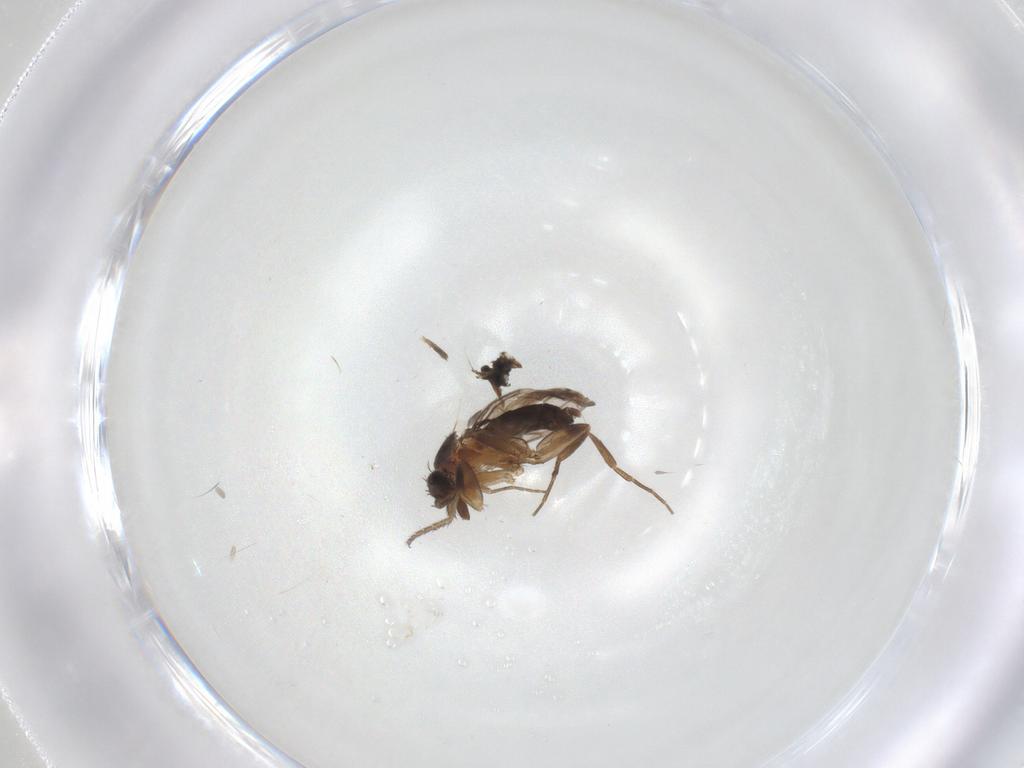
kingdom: Animalia
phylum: Arthropoda
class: Insecta
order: Diptera
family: Cecidomyiidae
